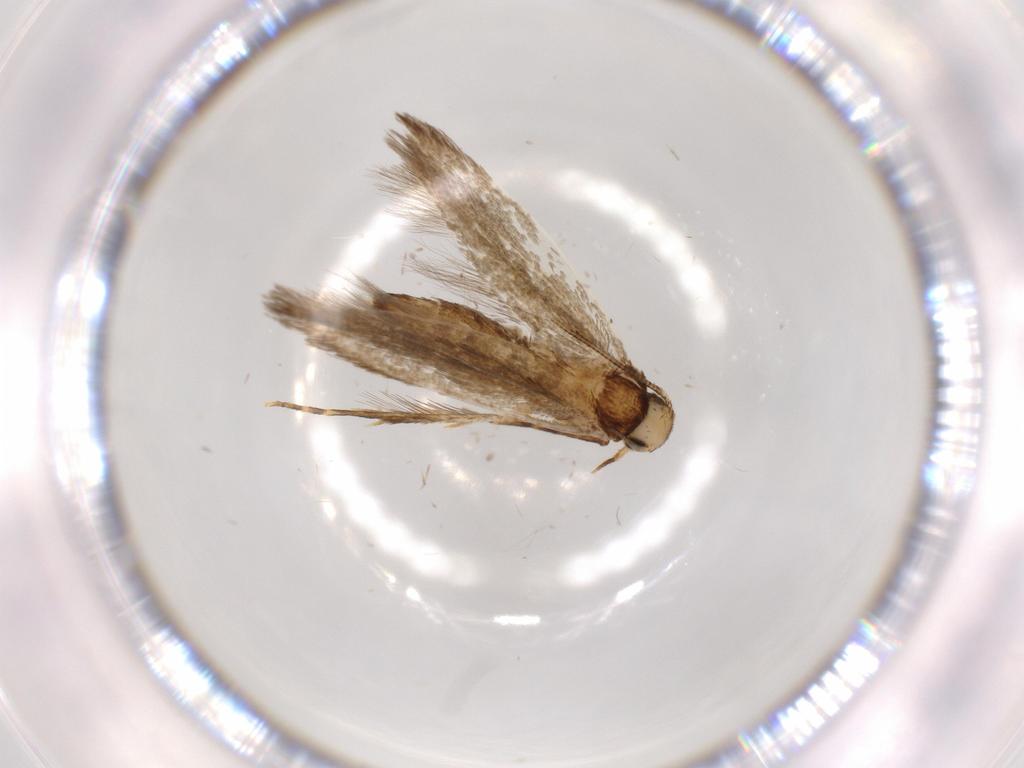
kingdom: Animalia
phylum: Arthropoda
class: Insecta
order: Lepidoptera
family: Tineidae
